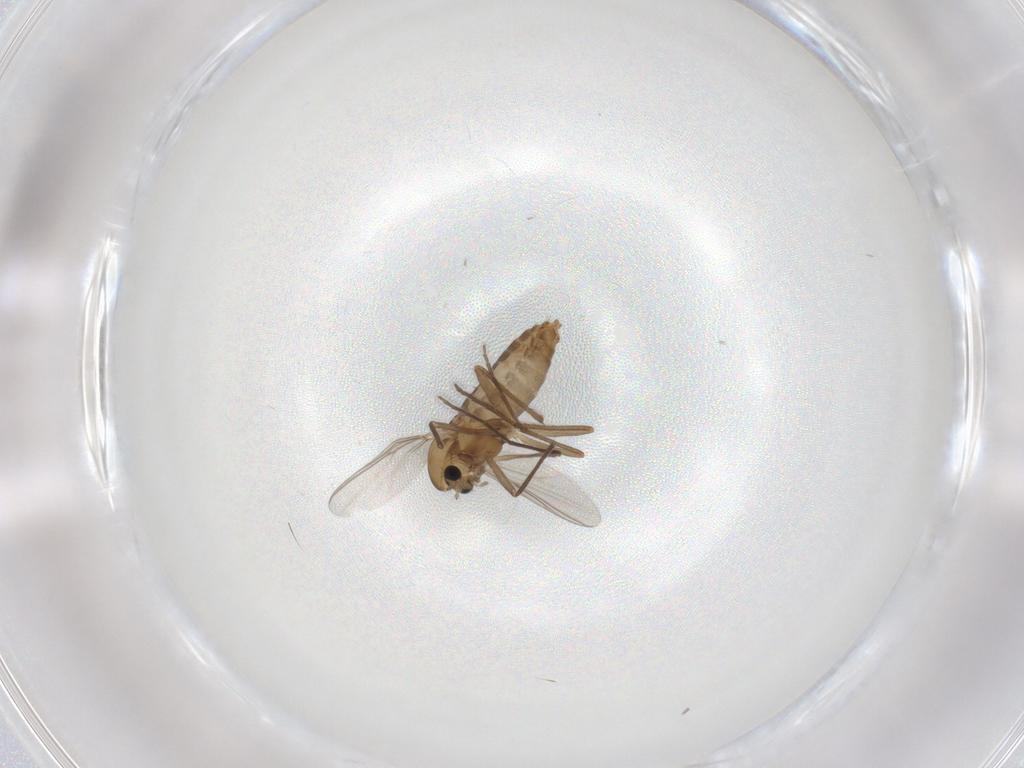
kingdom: Animalia
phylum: Arthropoda
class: Insecta
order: Diptera
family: Chironomidae
